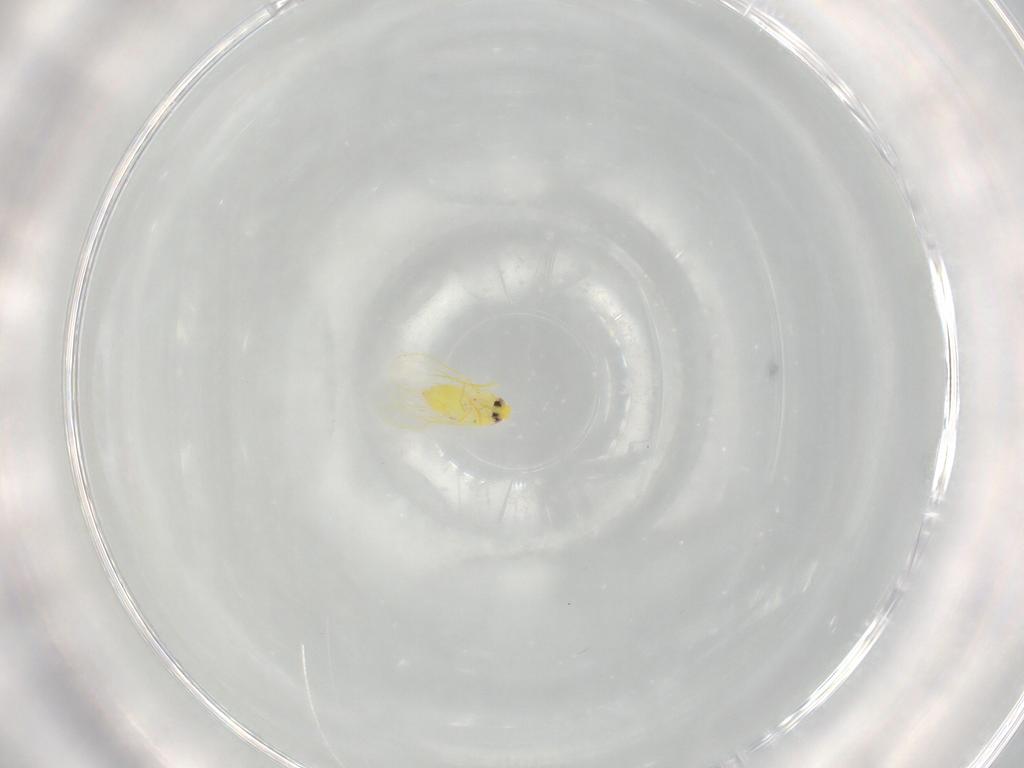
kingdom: Animalia
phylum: Arthropoda
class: Insecta
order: Hemiptera
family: Aleyrodidae
